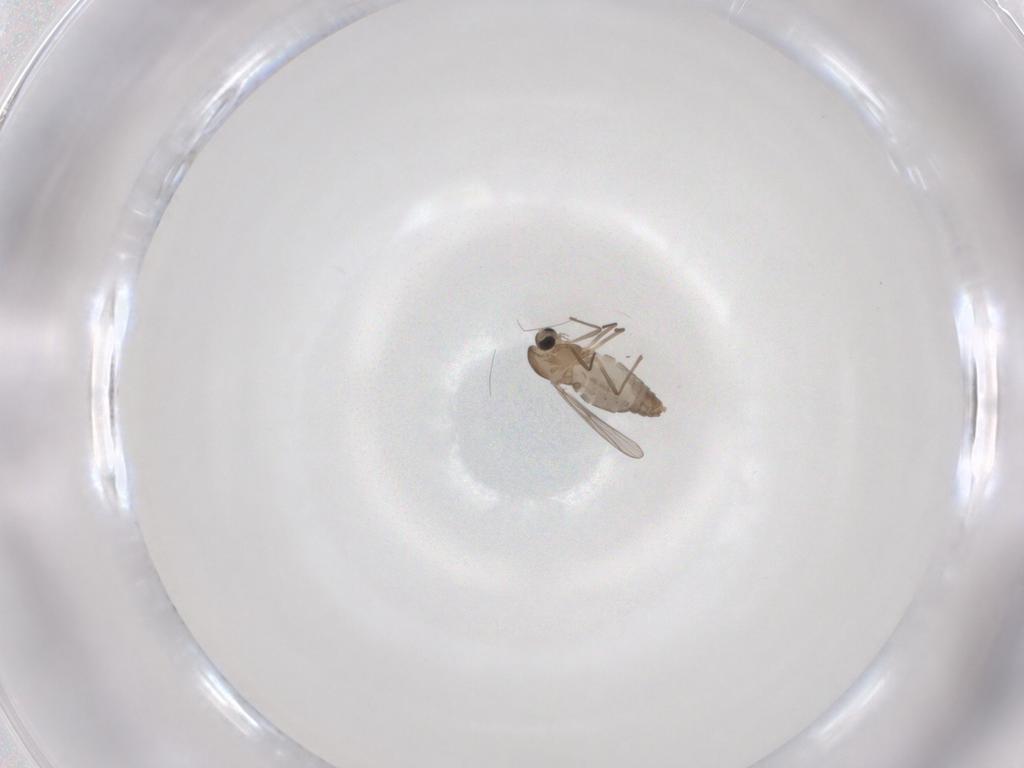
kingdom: Animalia
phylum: Arthropoda
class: Insecta
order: Diptera
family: Chironomidae
